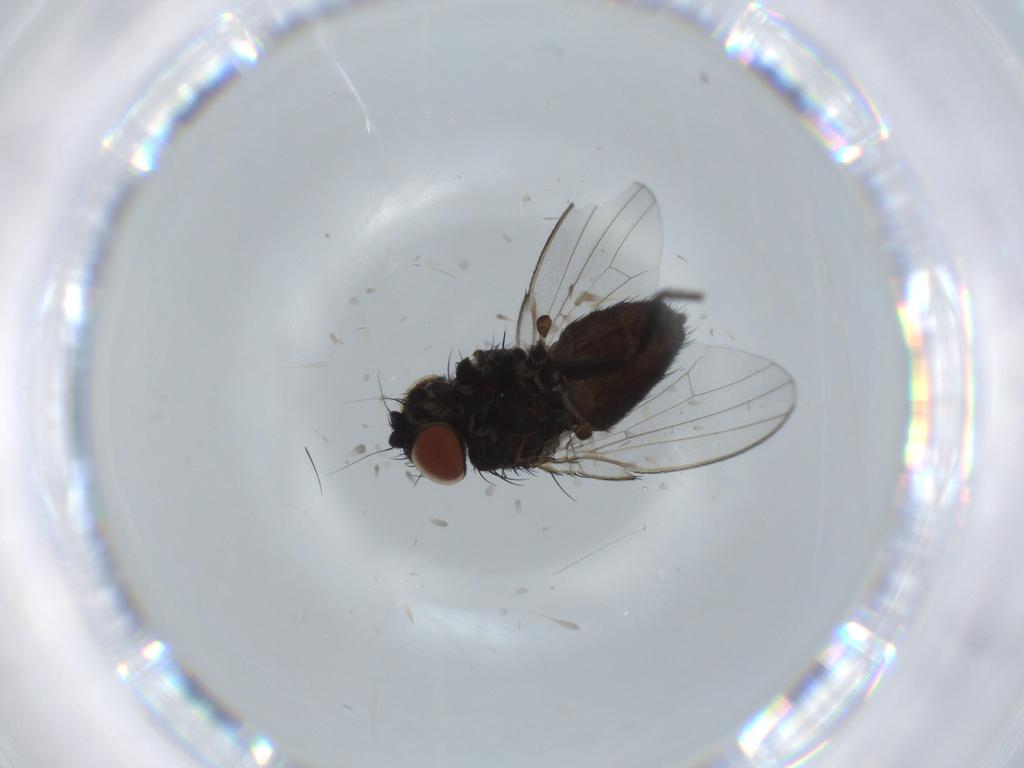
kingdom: Animalia
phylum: Arthropoda
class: Insecta
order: Diptera
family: Milichiidae
